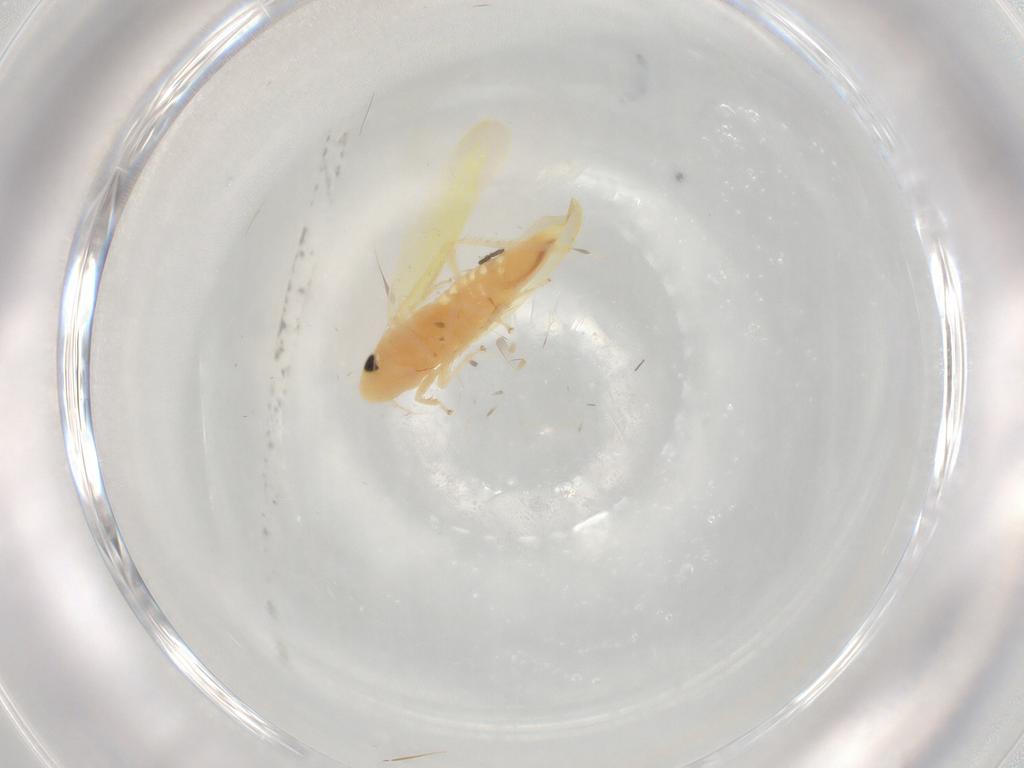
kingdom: Animalia
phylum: Arthropoda
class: Insecta
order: Hemiptera
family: Cicadellidae
